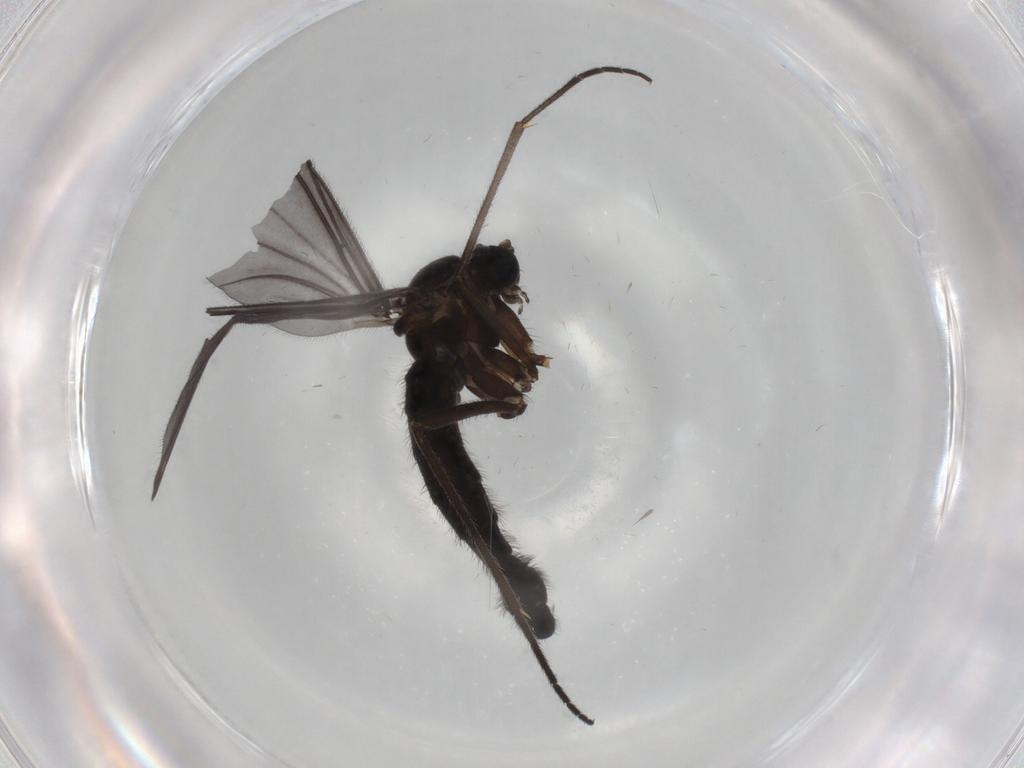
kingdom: Animalia
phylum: Arthropoda
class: Insecta
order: Diptera
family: Sciaridae
